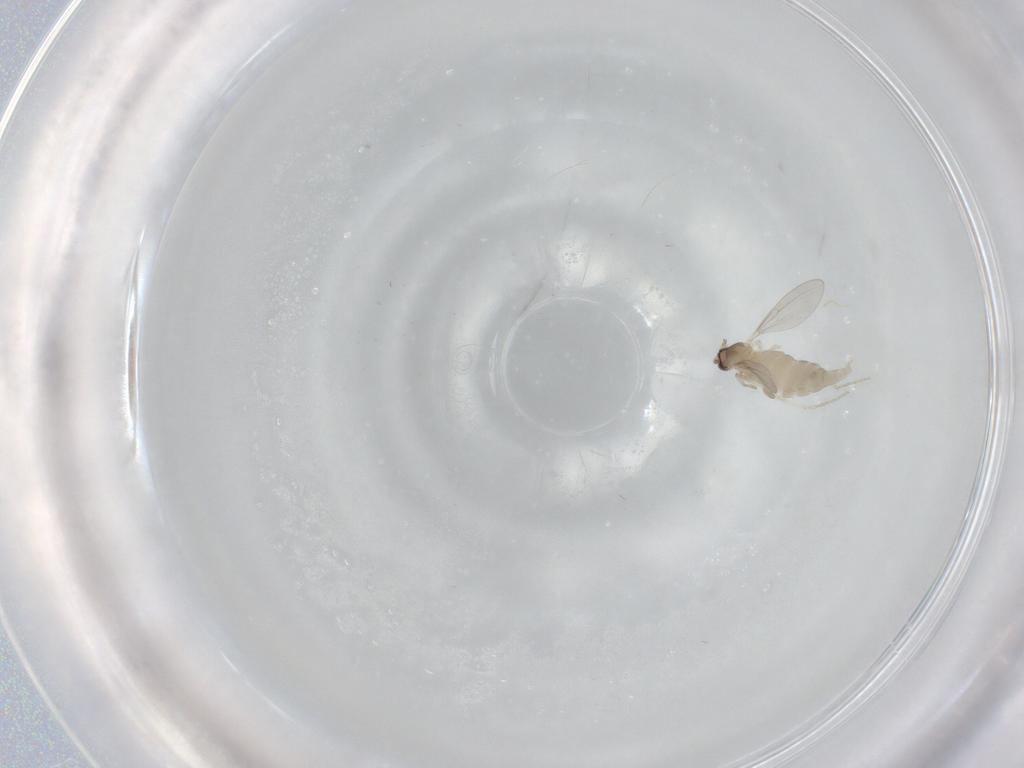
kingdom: Animalia
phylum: Arthropoda
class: Insecta
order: Diptera
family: Cecidomyiidae
